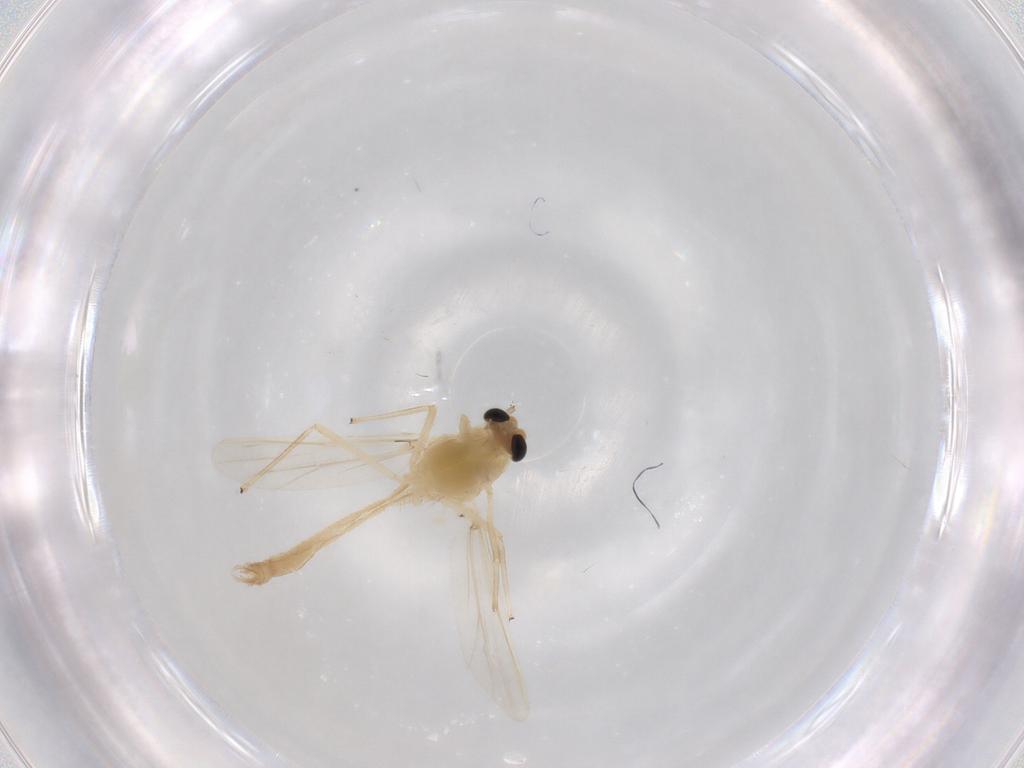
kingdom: Animalia
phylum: Arthropoda
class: Insecta
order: Diptera
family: Chironomidae
